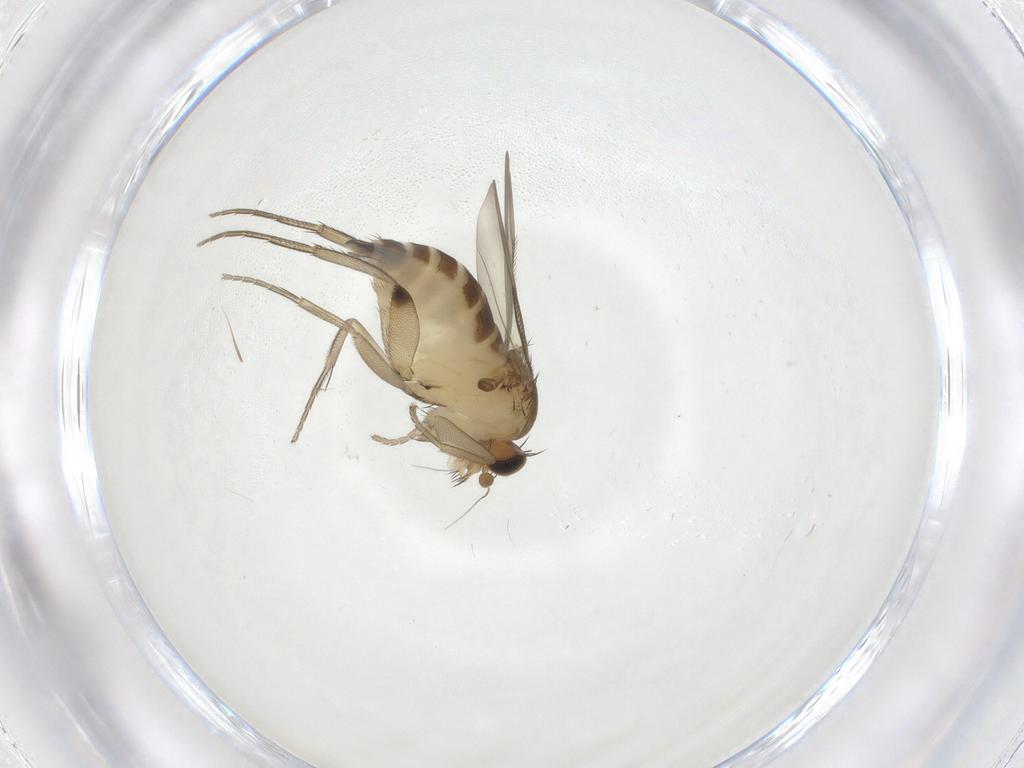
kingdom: Animalia
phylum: Arthropoda
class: Insecta
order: Diptera
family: Phoridae
